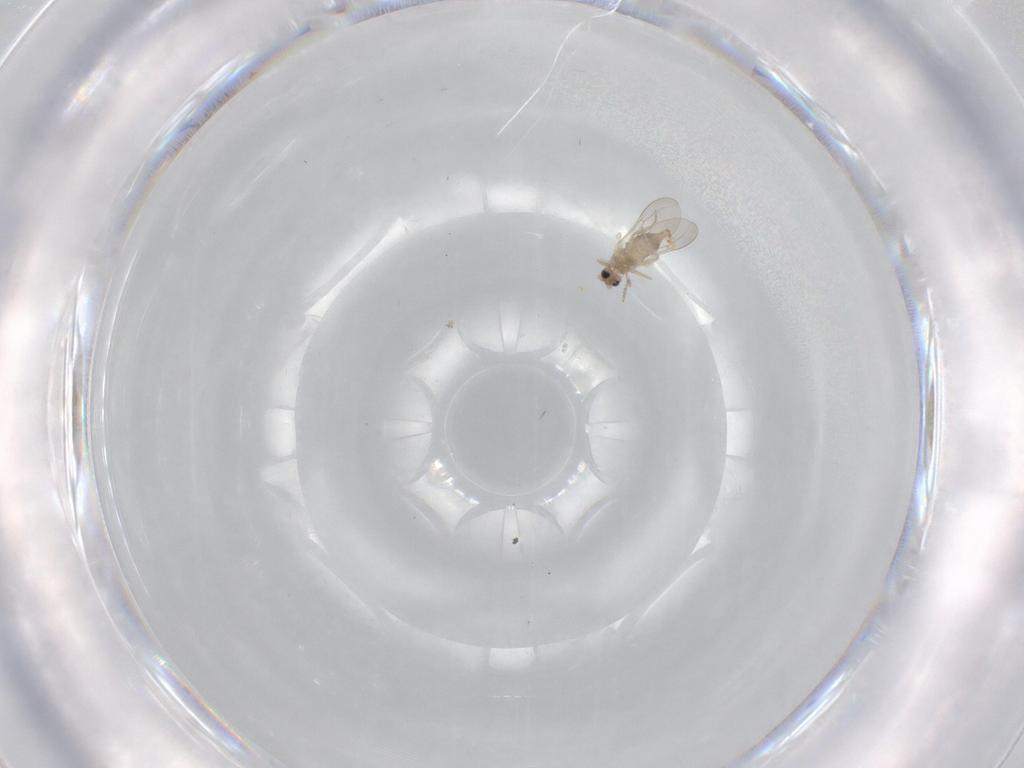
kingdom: Animalia
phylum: Arthropoda
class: Insecta
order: Diptera
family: Cecidomyiidae
